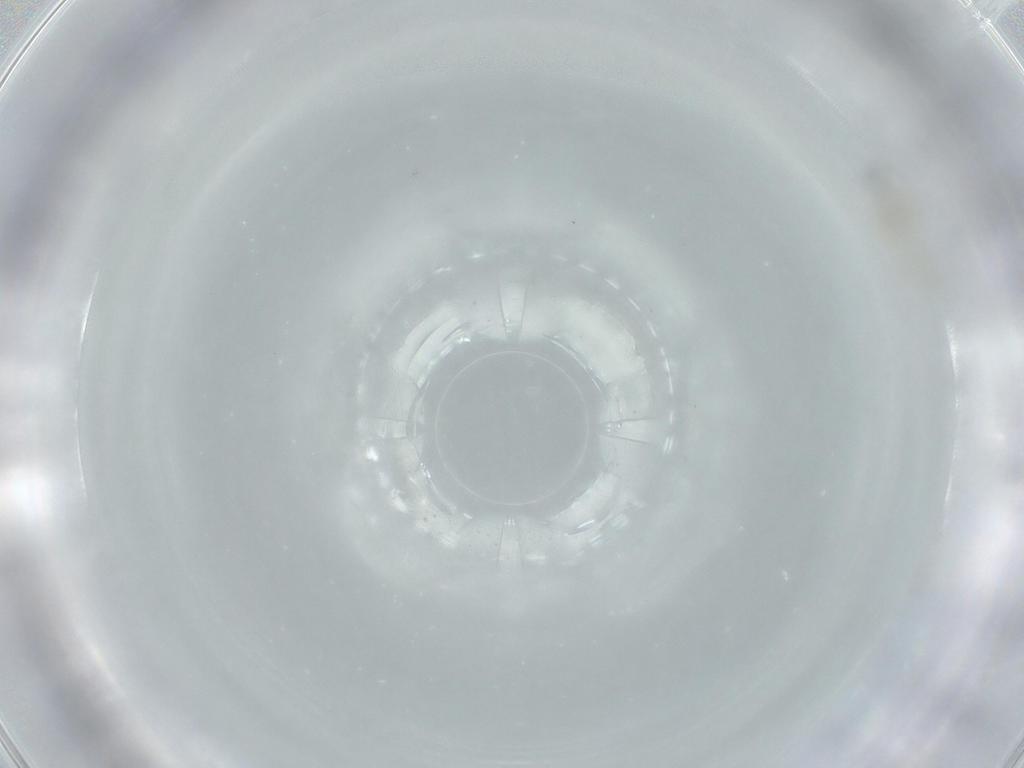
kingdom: Animalia
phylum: Arthropoda
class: Insecta
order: Diptera
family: Cecidomyiidae
